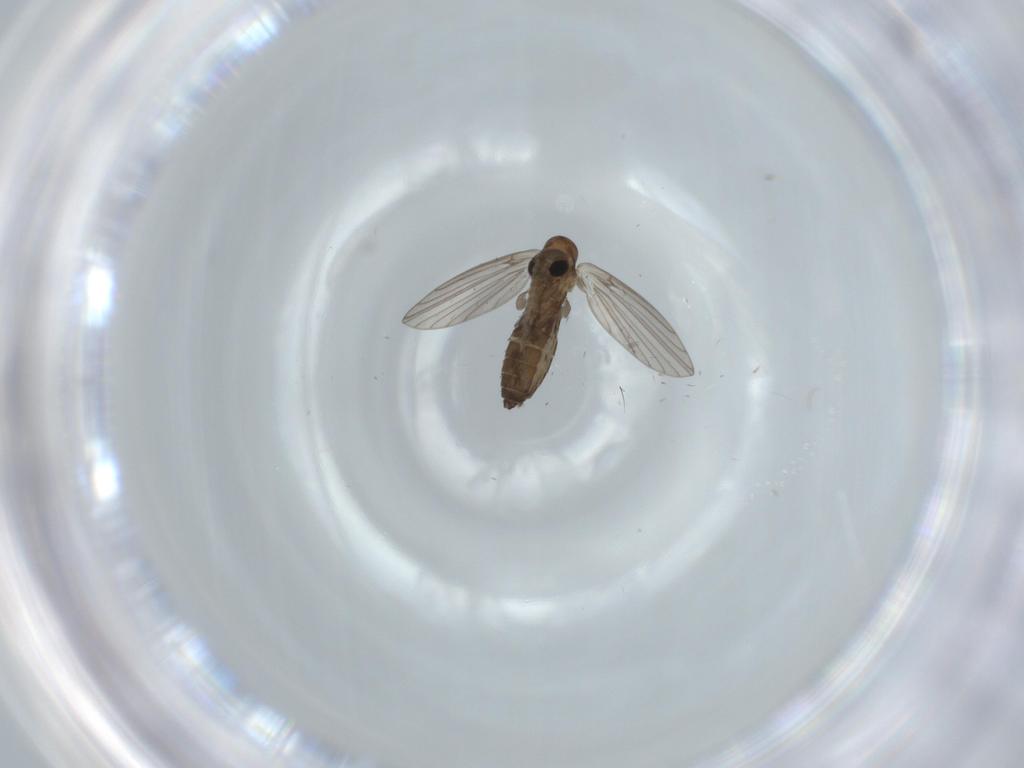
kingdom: Animalia
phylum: Arthropoda
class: Insecta
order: Diptera
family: Psychodidae
